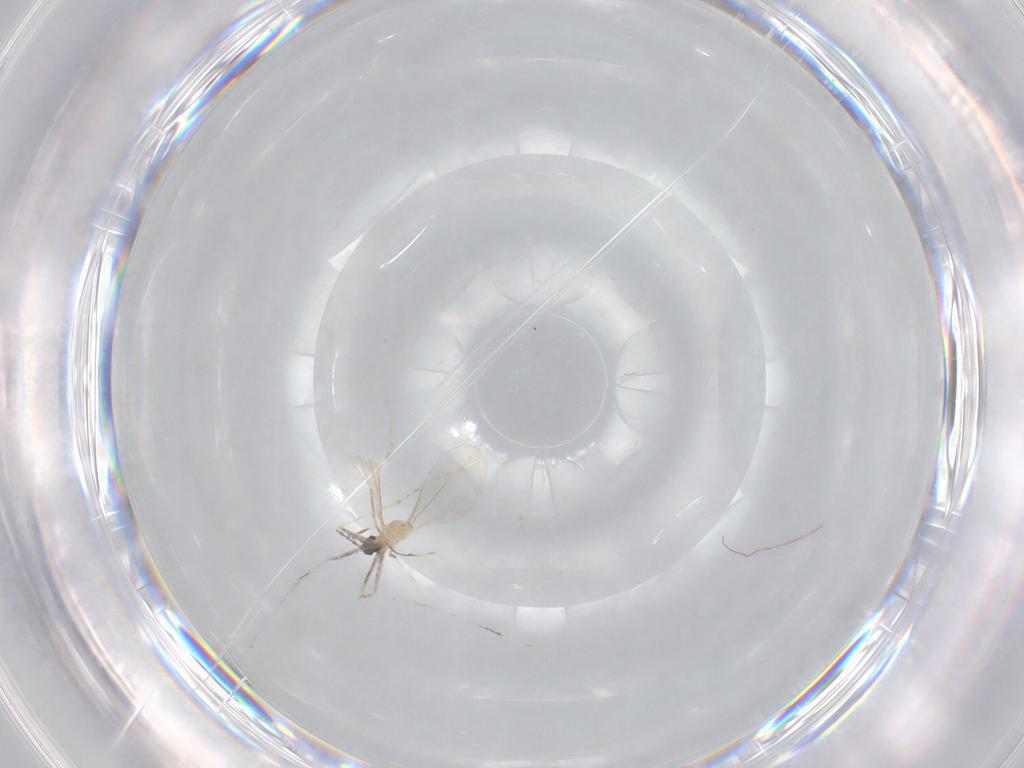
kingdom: Animalia
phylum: Arthropoda
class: Insecta
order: Diptera
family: Cecidomyiidae
